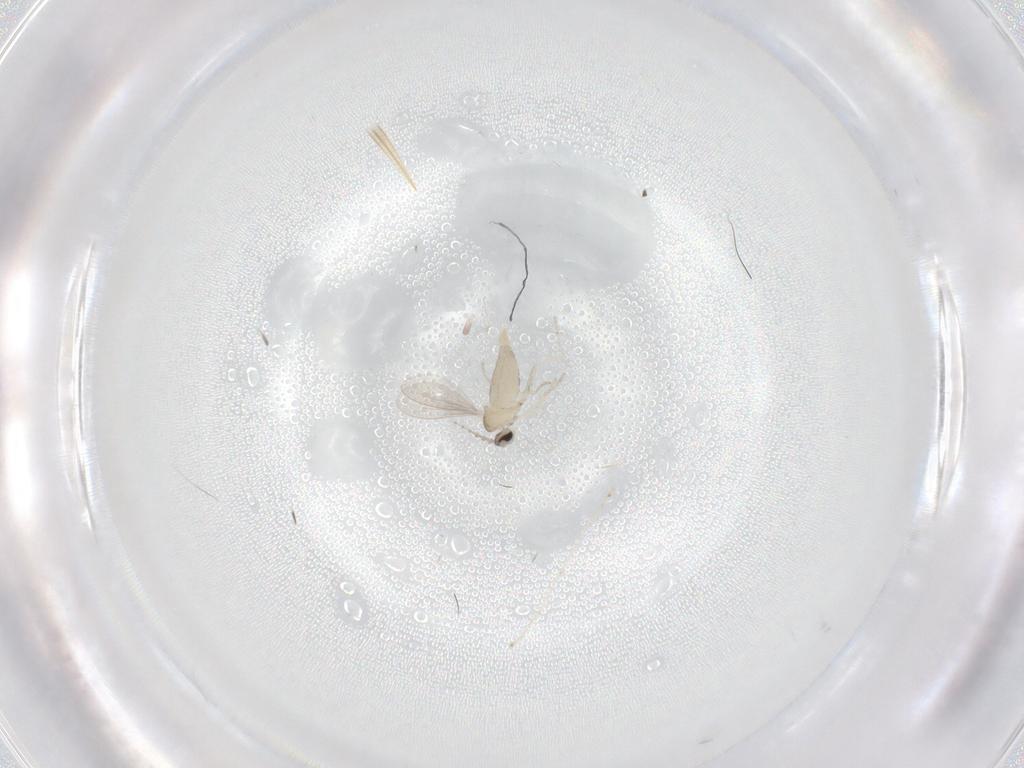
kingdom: Animalia
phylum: Arthropoda
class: Insecta
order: Diptera
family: Cecidomyiidae
